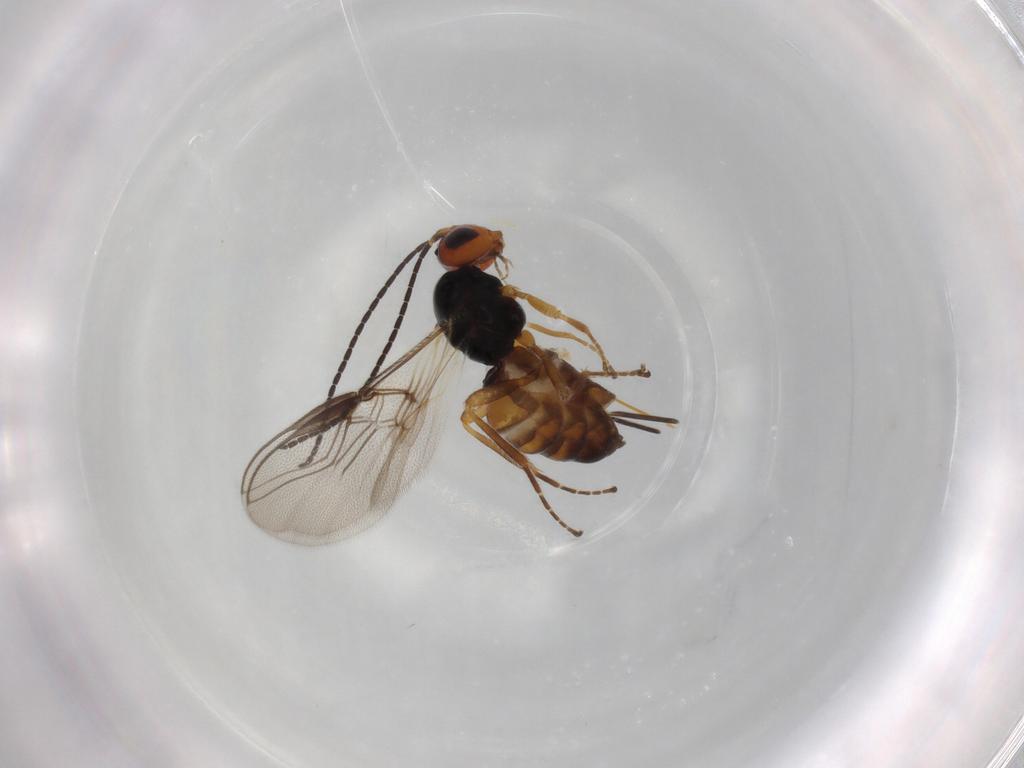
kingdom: Animalia
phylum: Arthropoda
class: Insecta
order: Hymenoptera
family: Braconidae
